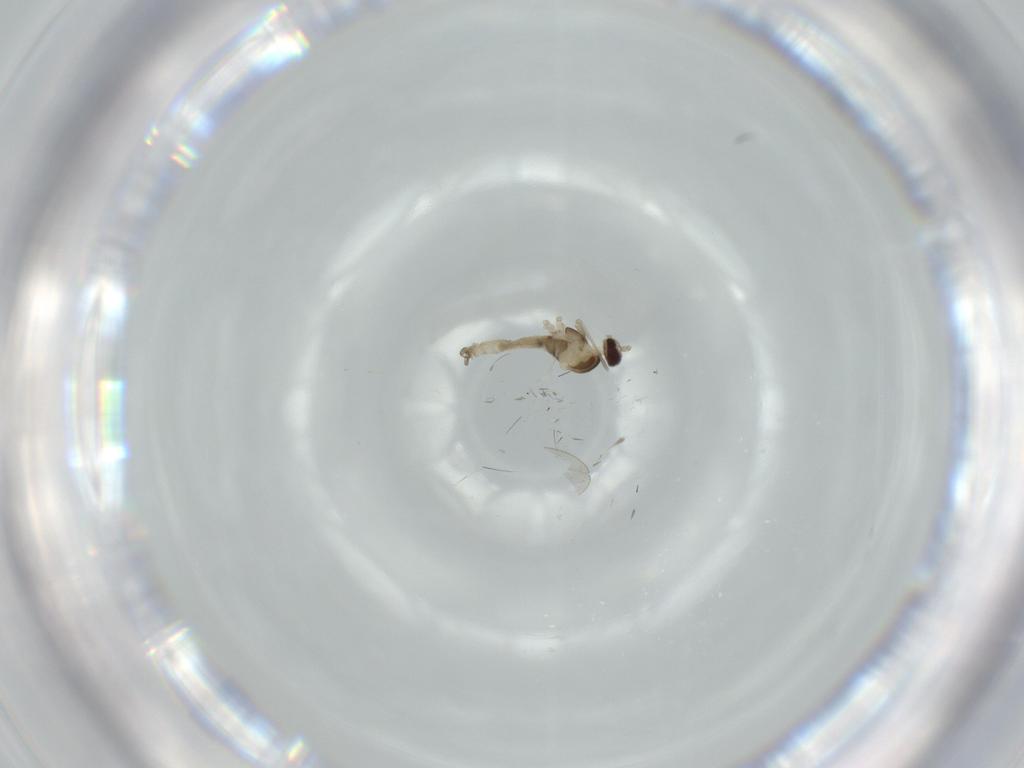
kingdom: Animalia
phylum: Arthropoda
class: Insecta
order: Diptera
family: Cecidomyiidae
